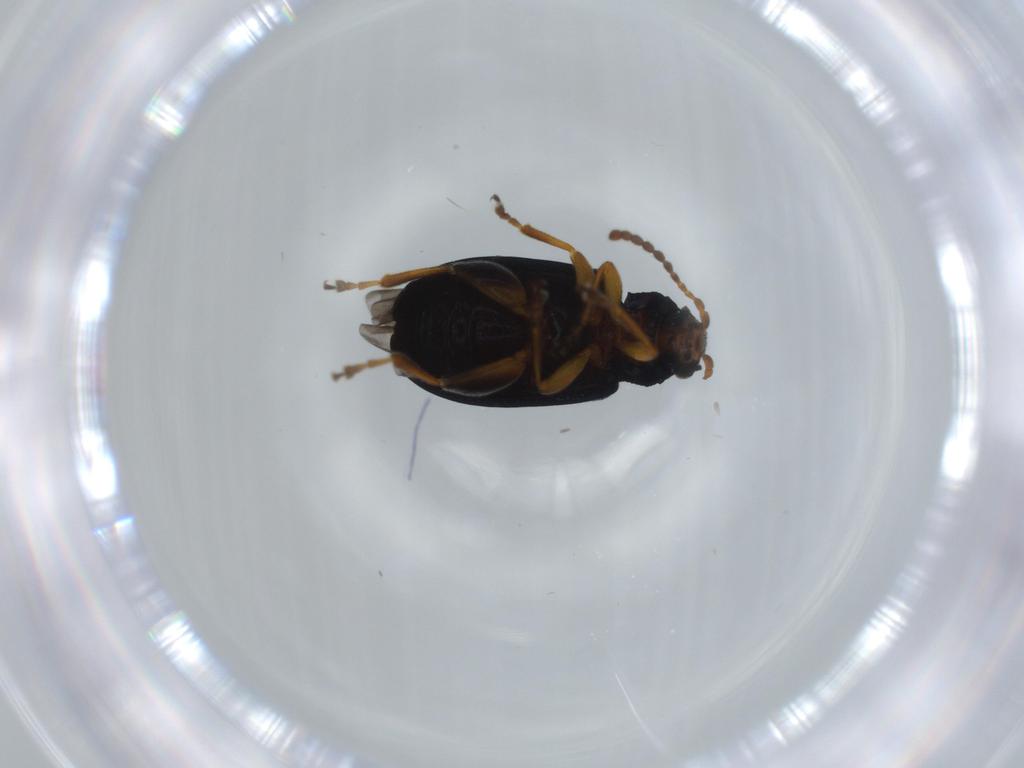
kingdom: Animalia
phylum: Arthropoda
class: Insecta
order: Coleoptera
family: Chrysomelidae
